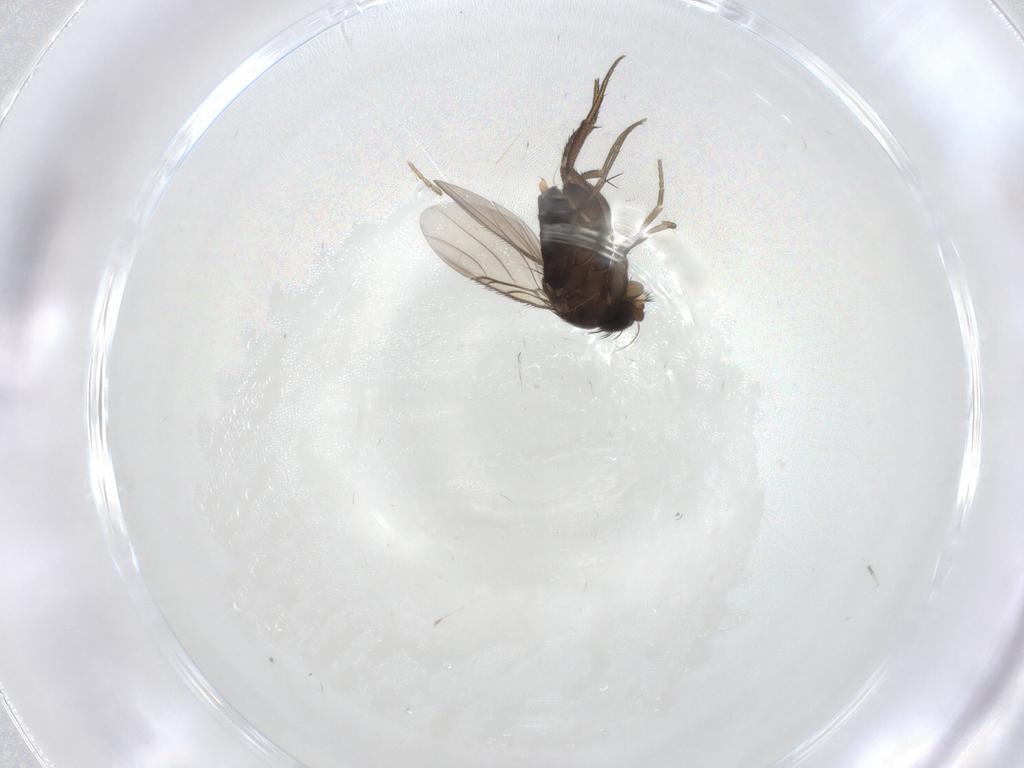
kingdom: Animalia
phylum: Arthropoda
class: Insecta
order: Diptera
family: Phoridae
